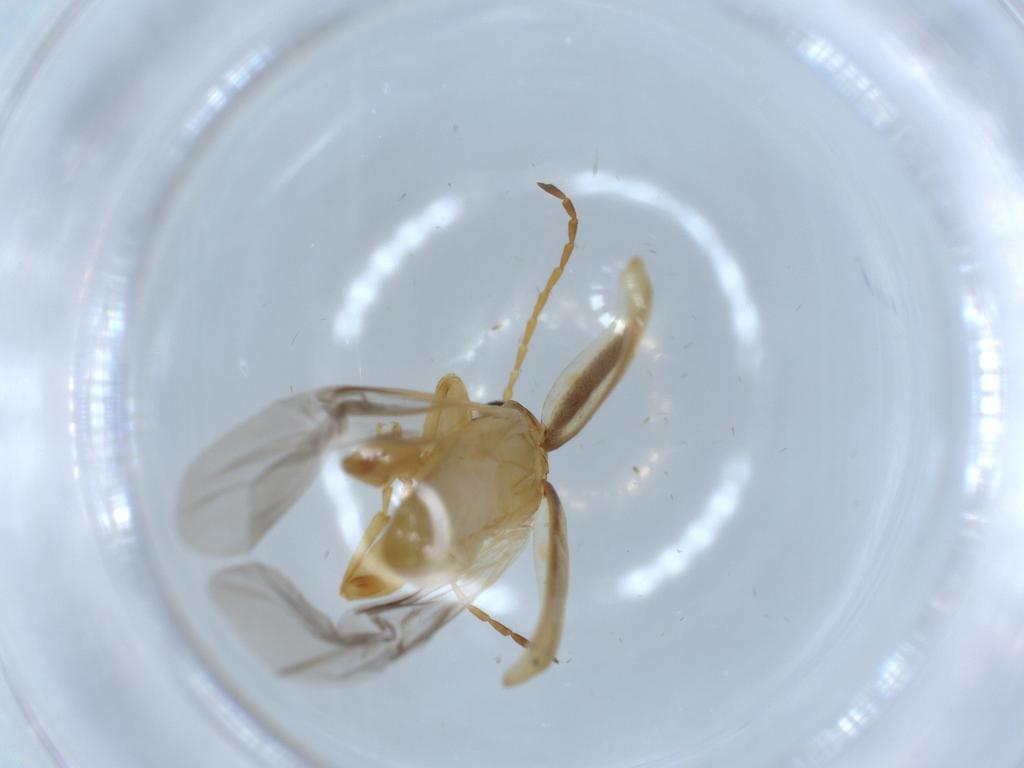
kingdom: Animalia
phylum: Arthropoda
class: Insecta
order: Coleoptera
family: Chrysomelidae
